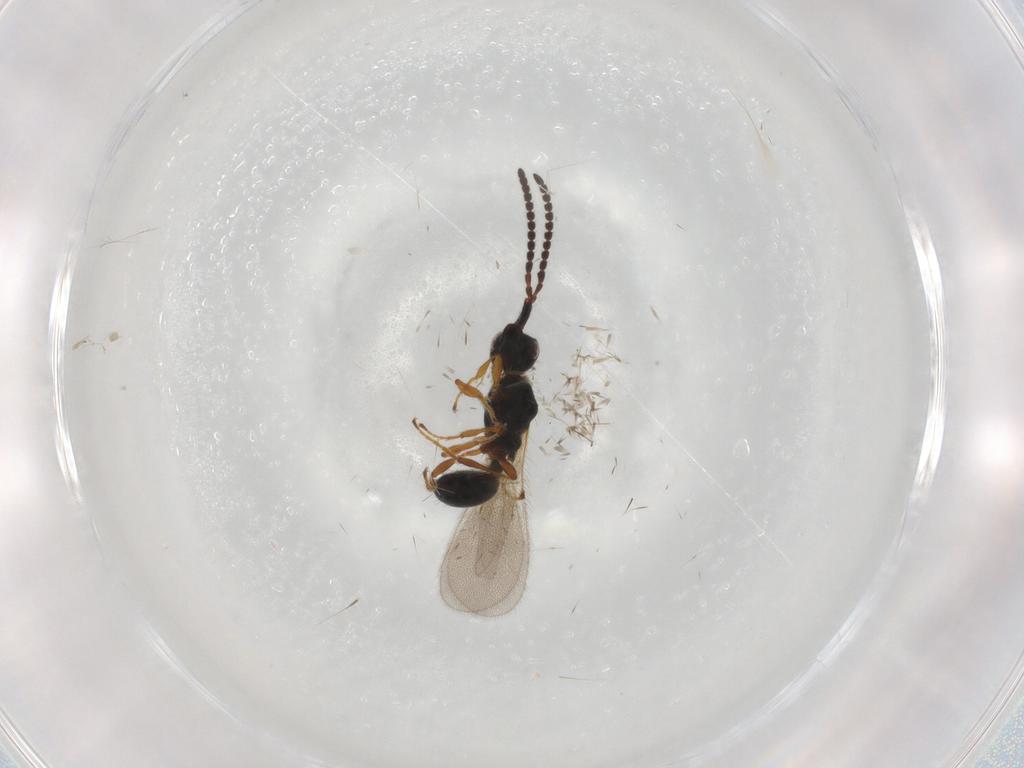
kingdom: Animalia
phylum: Arthropoda
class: Insecta
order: Hymenoptera
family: Diapriidae
